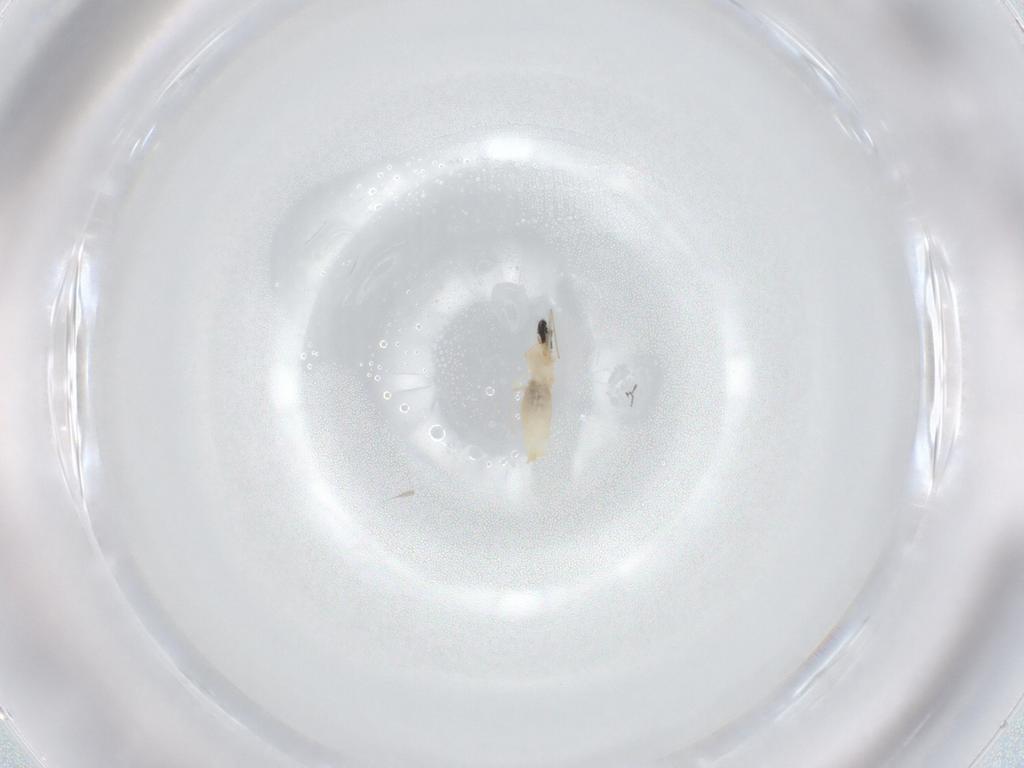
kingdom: Animalia
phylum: Arthropoda
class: Insecta
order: Diptera
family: Cecidomyiidae
